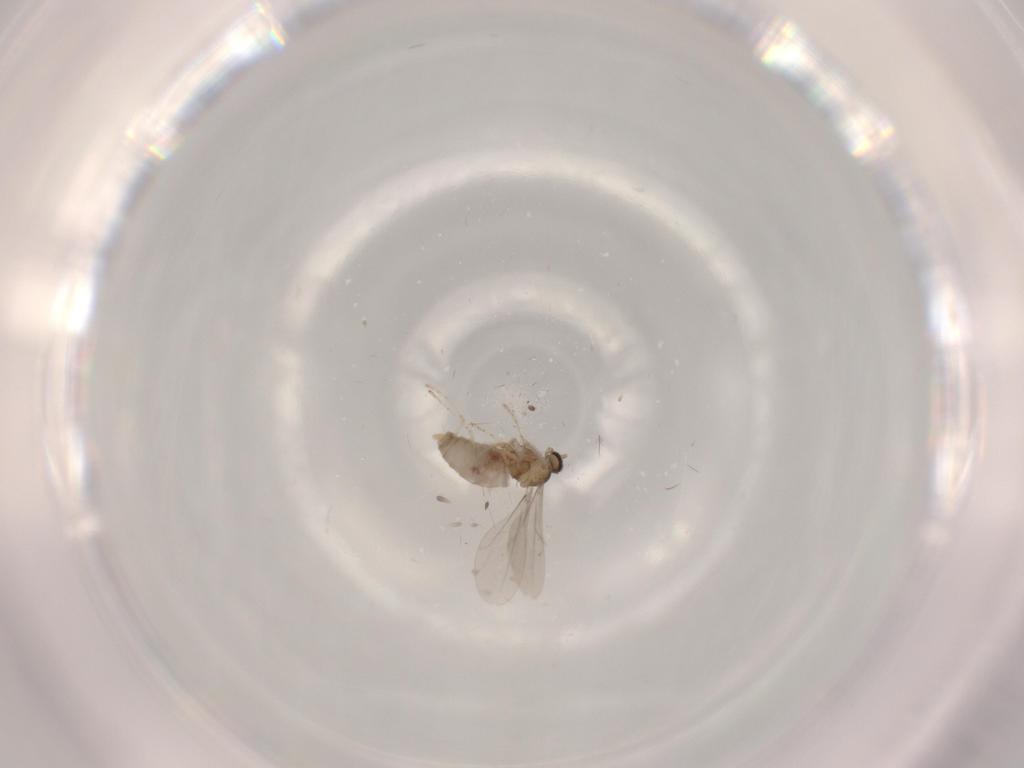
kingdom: Animalia
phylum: Arthropoda
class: Insecta
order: Diptera
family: Cecidomyiidae
